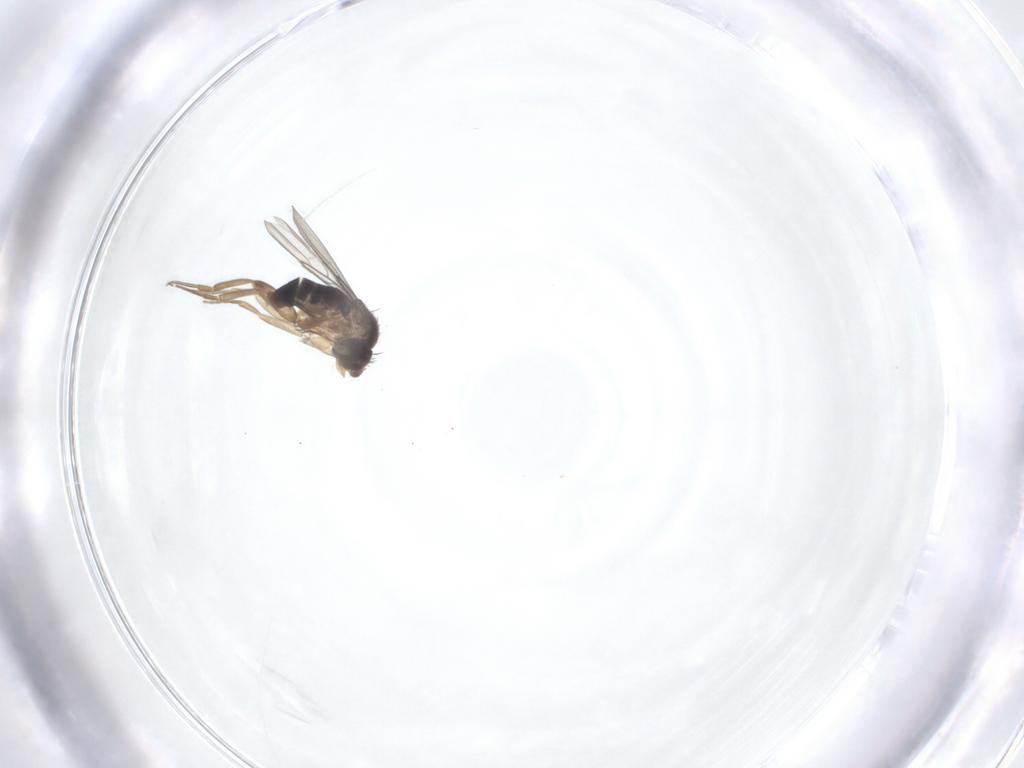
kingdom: Animalia
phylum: Arthropoda
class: Insecta
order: Diptera
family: Phoridae
